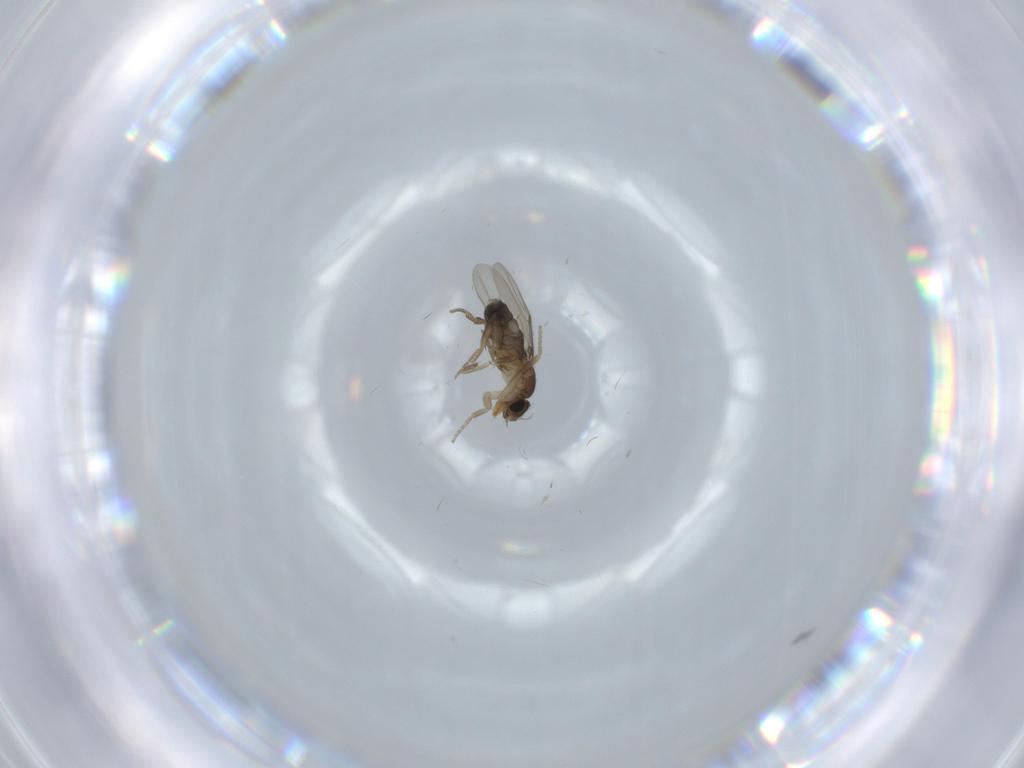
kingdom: Animalia
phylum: Arthropoda
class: Insecta
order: Diptera
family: Phoridae
